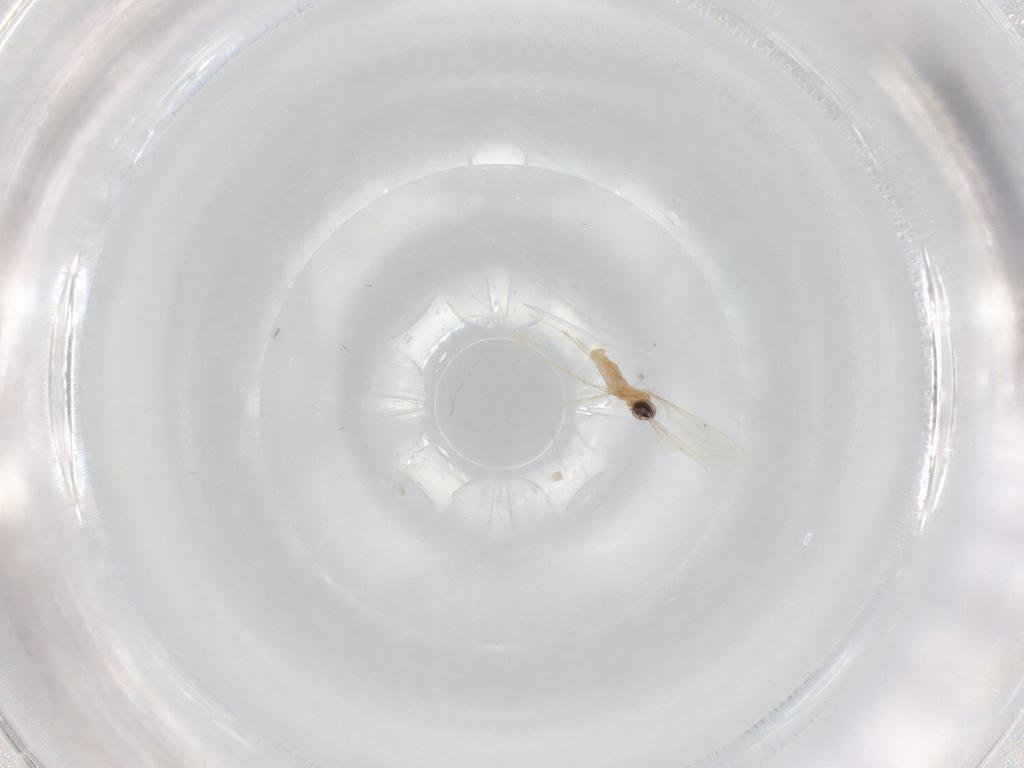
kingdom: Animalia
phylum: Arthropoda
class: Insecta
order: Diptera
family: Cecidomyiidae
